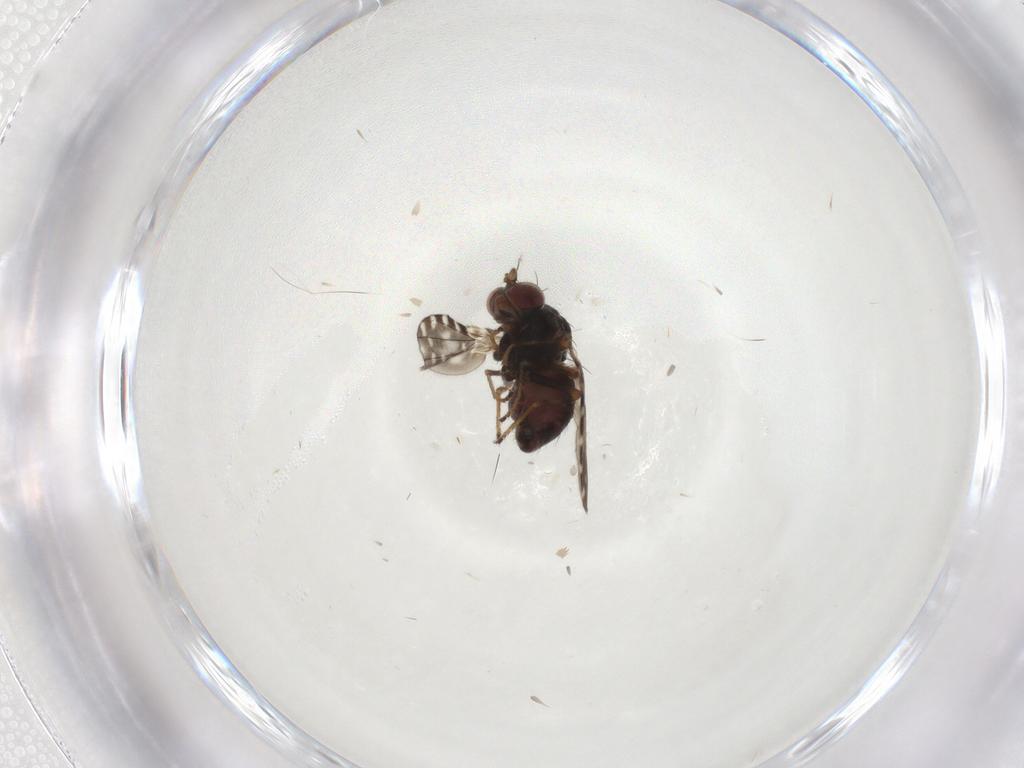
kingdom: Animalia
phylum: Arthropoda
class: Insecta
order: Diptera
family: Ephydridae
